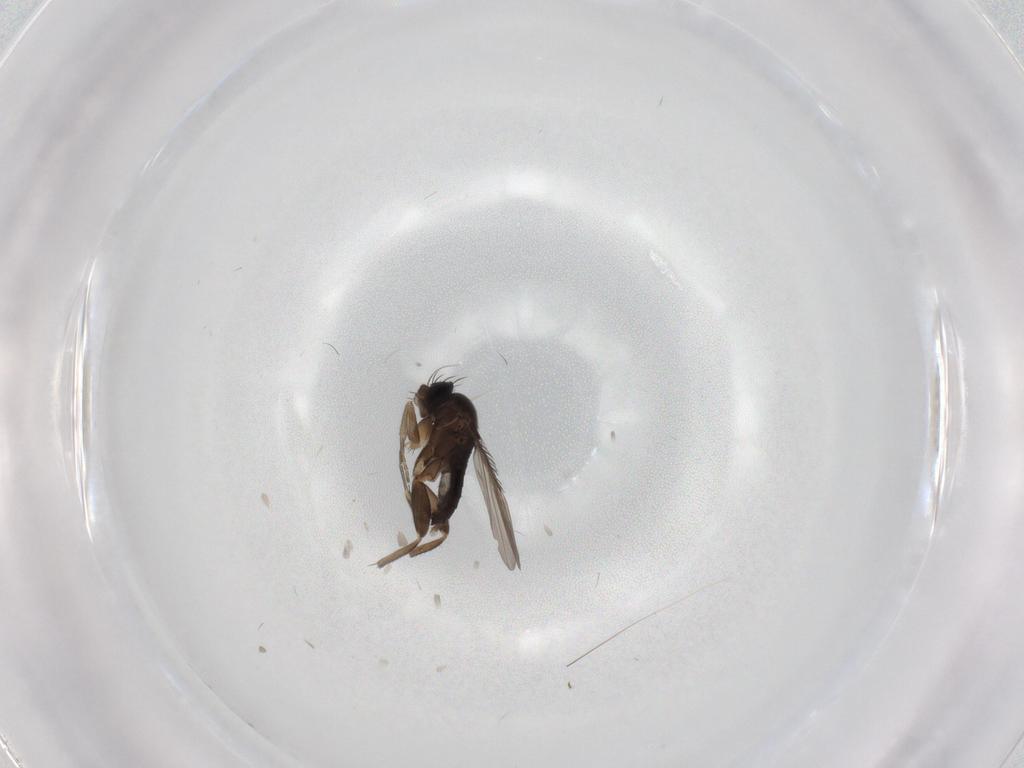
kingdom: Animalia
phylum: Arthropoda
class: Insecta
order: Diptera
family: Phoridae
